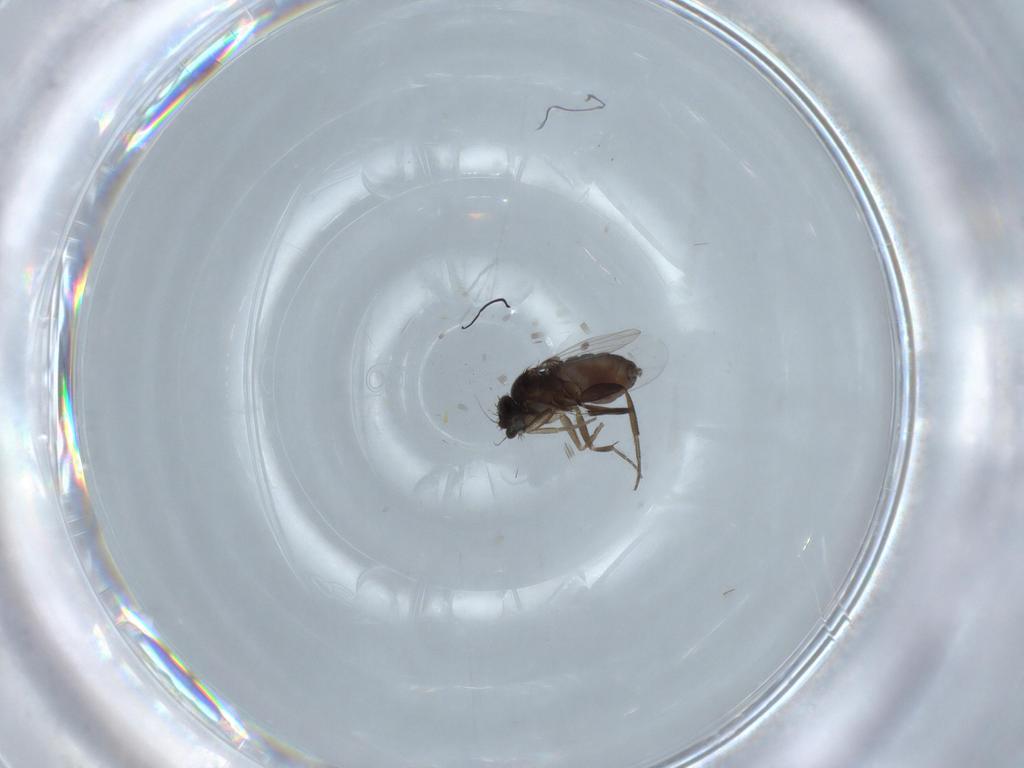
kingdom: Animalia
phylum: Arthropoda
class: Insecta
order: Diptera
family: Phoridae
